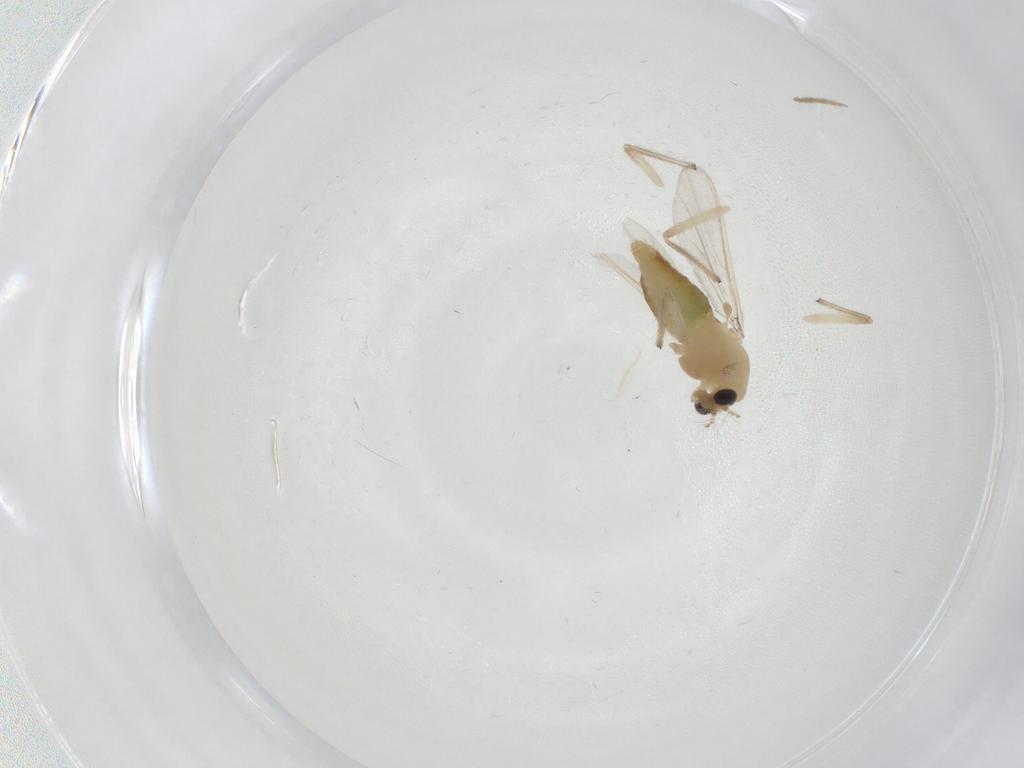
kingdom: Animalia
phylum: Arthropoda
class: Insecta
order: Diptera
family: Chironomidae
